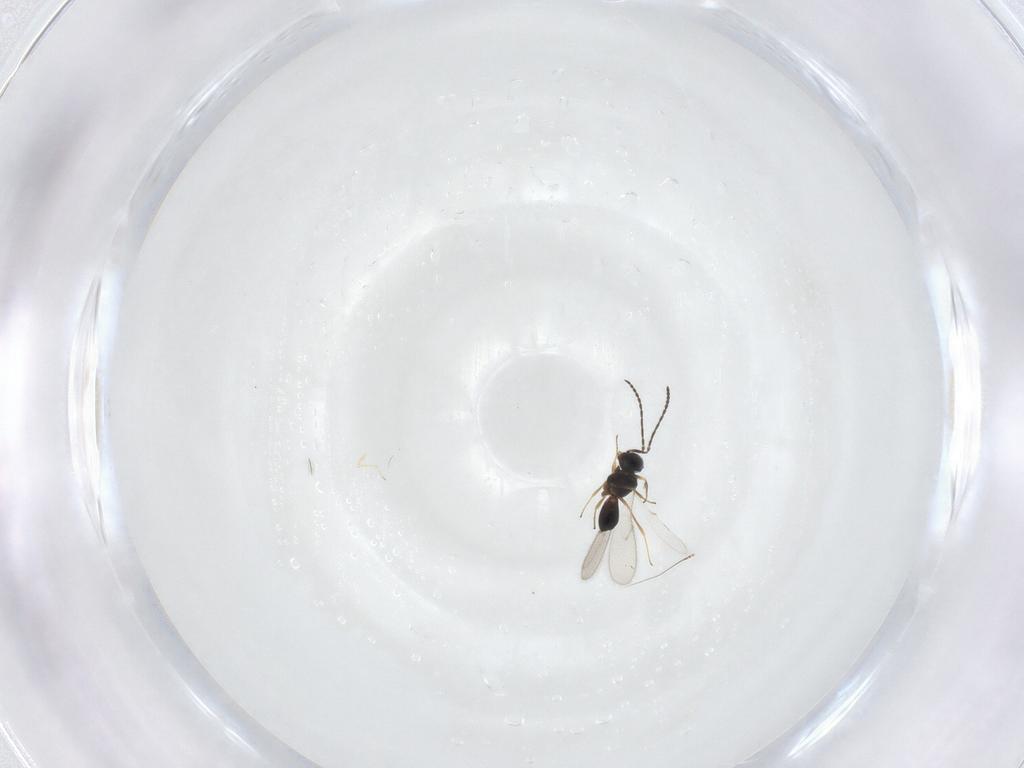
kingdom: Animalia
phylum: Arthropoda
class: Insecta
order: Hymenoptera
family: Scelionidae
